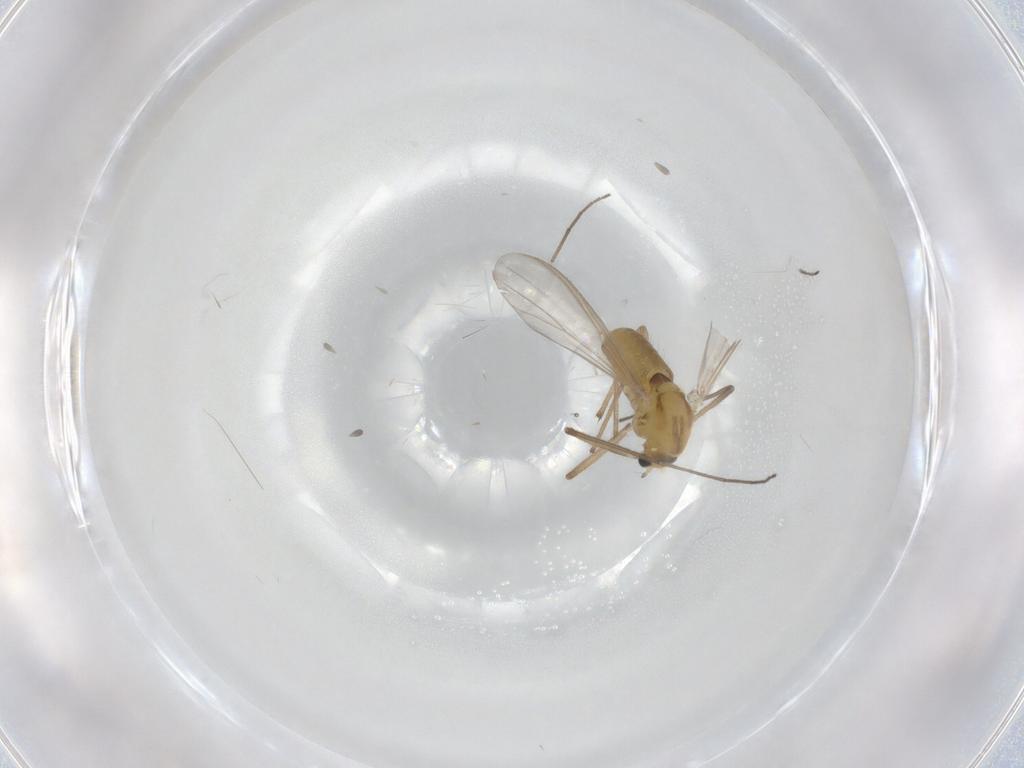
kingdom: Animalia
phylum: Arthropoda
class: Insecta
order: Diptera
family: Chironomidae
